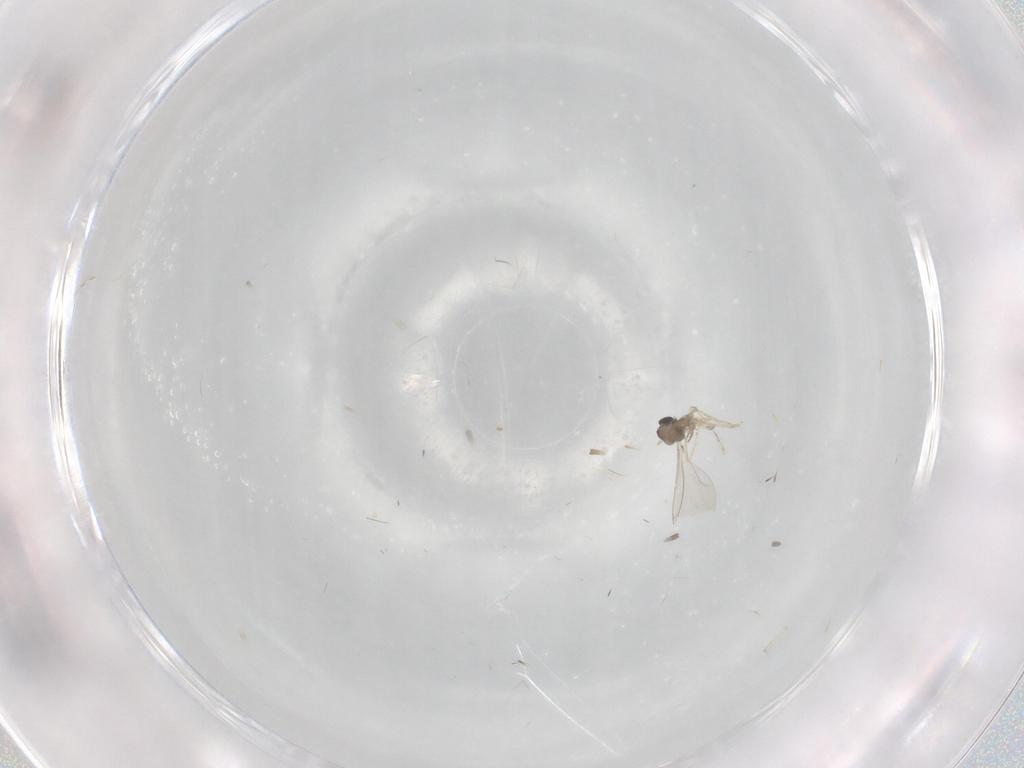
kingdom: Animalia
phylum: Arthropoda
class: Insecta
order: Diptera
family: Cecidomyiidae
